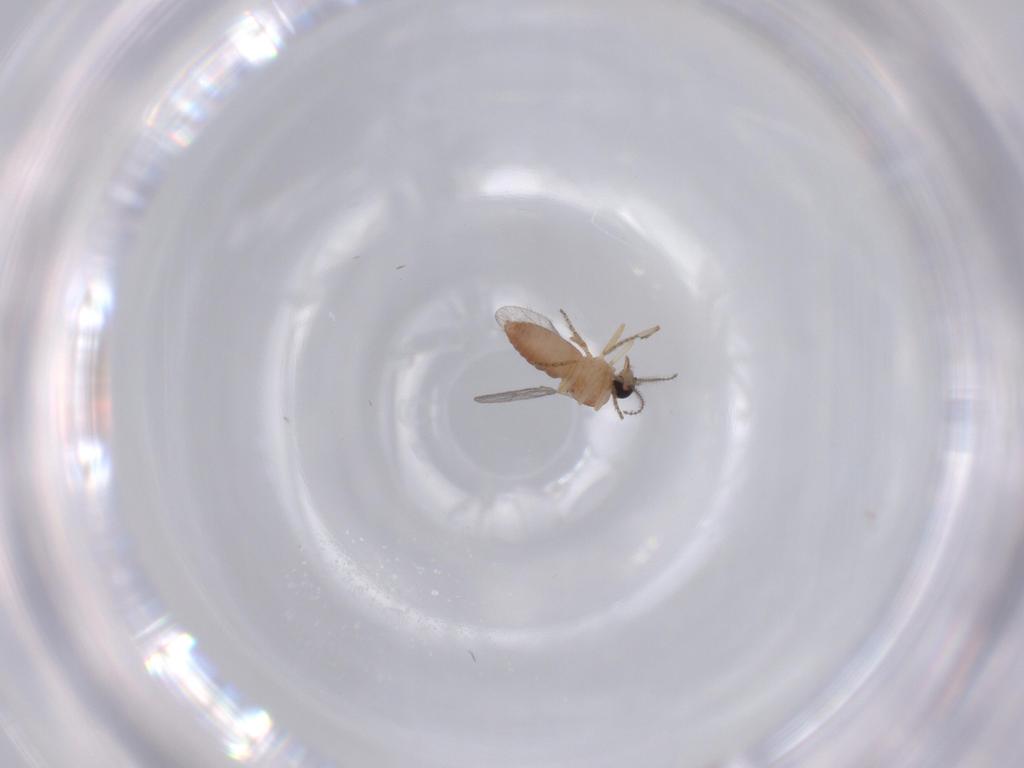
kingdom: Animalia
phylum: Arthropoda
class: Insecta
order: Diptera
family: Ceratopogonidae
